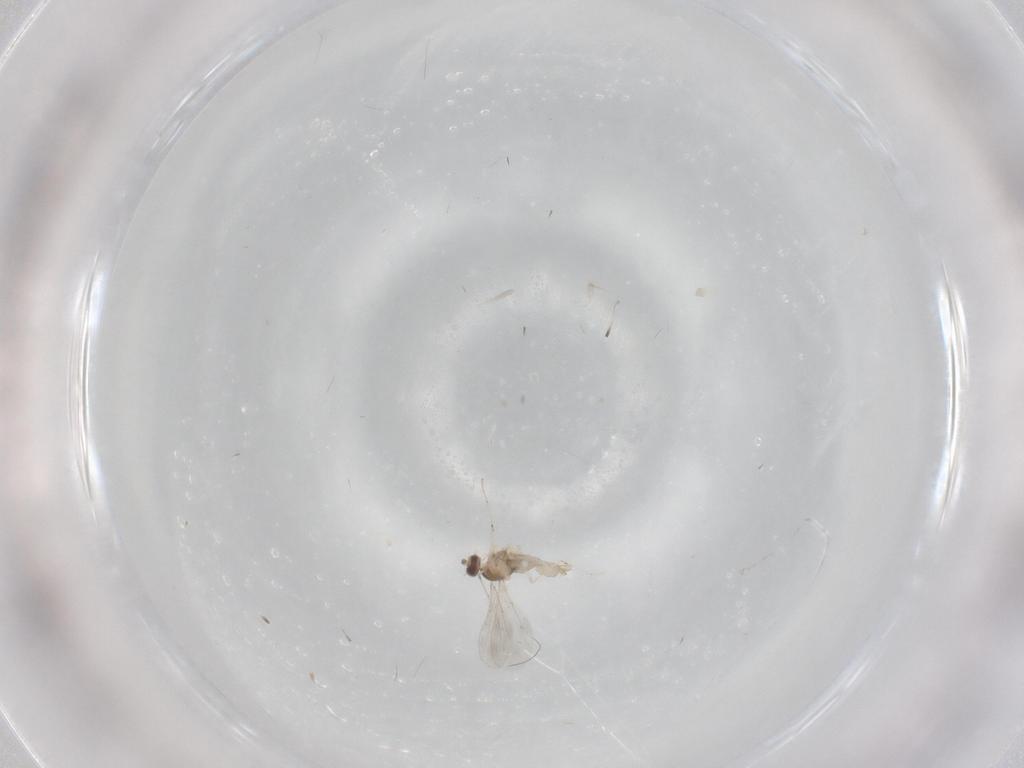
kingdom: Animalia
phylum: Arthropoda
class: Insecta
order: Diptera
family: Cecidomyiidae
